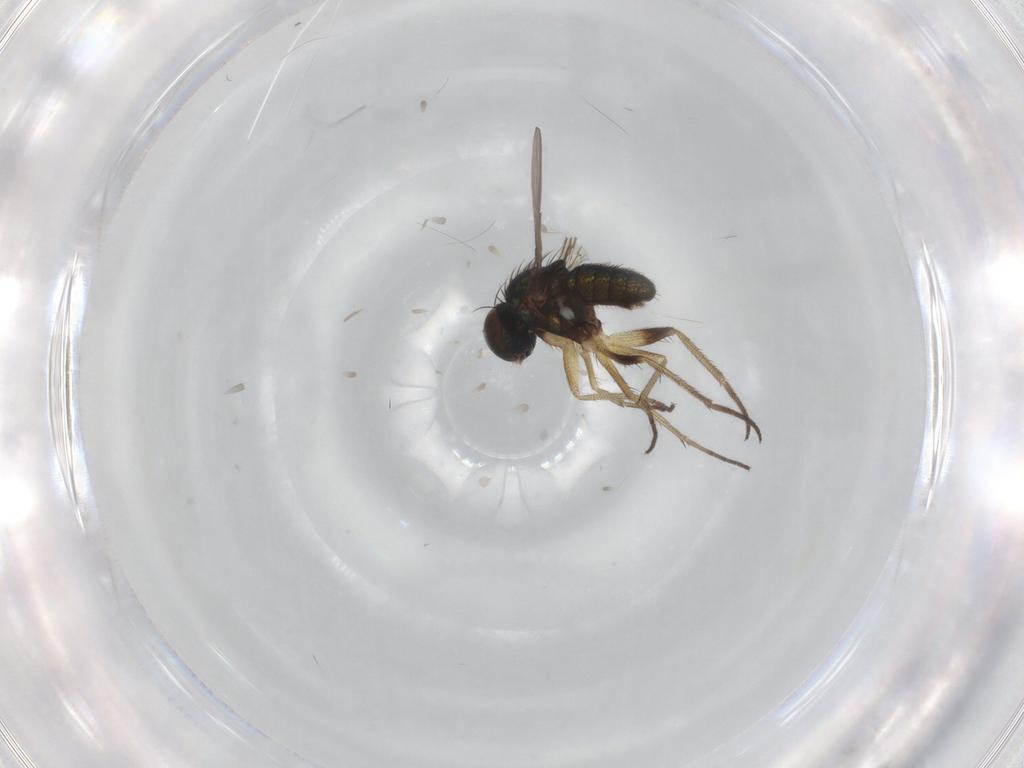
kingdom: Animalia
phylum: Arthropoda
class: Insecta
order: Diptera
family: Dolichopodidae
